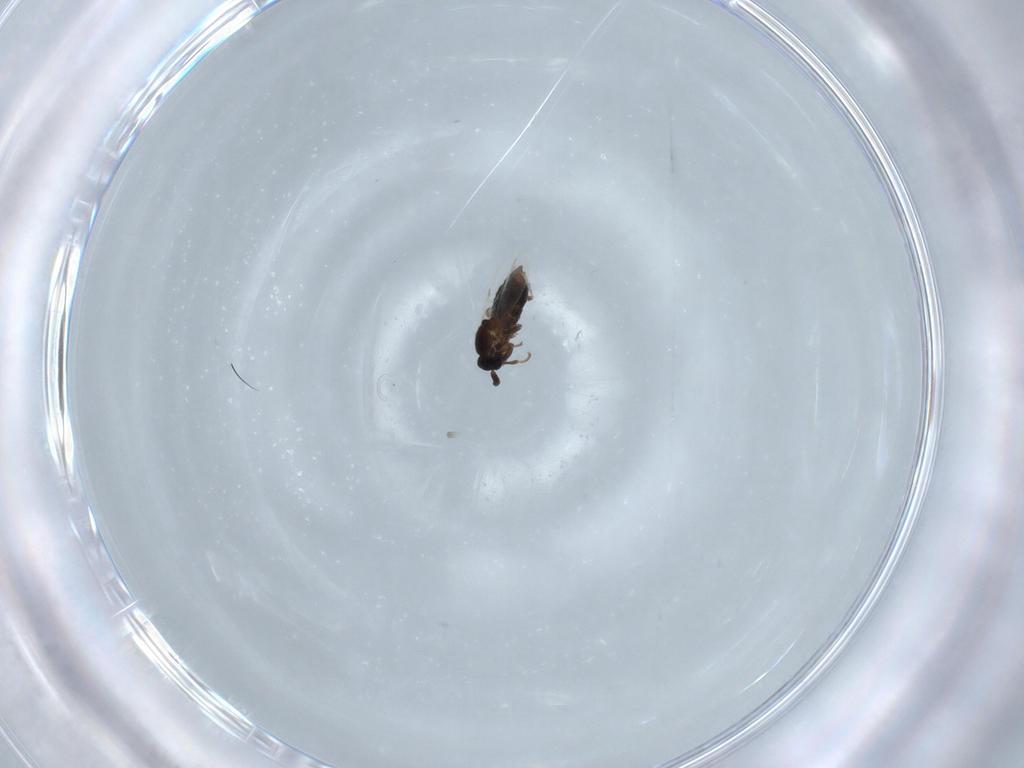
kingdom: Animalia
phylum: Arthropoda
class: Insecta
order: Diptera
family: Scatopsidae
